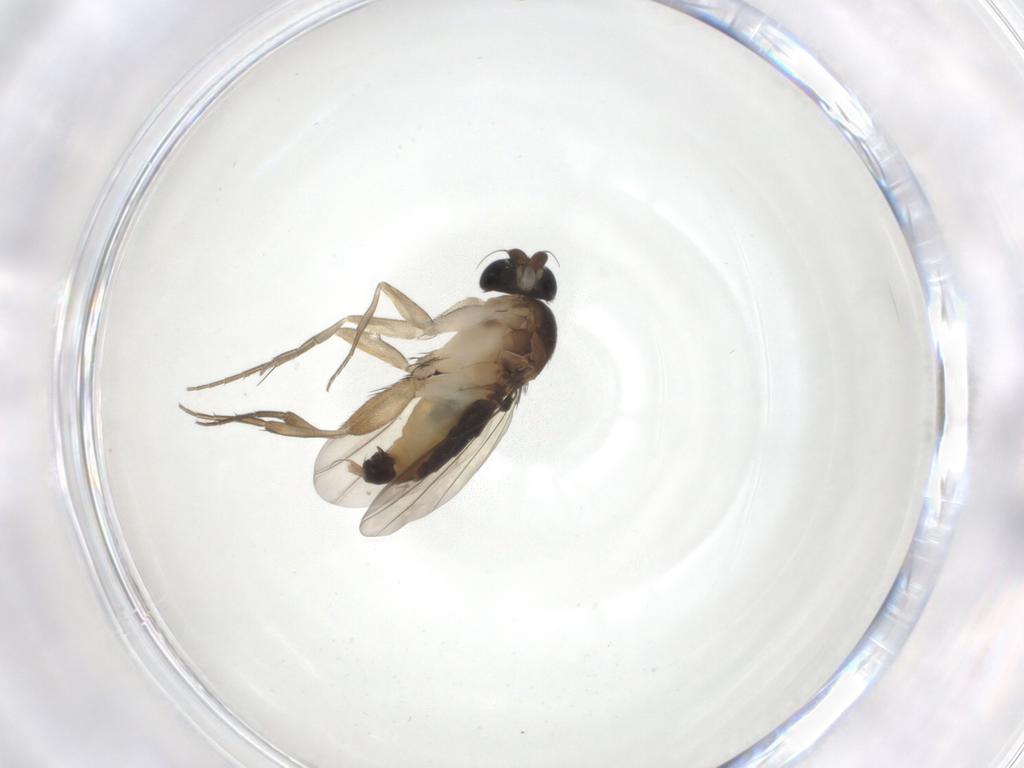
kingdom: Animalia
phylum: Arthropoda
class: Insecta
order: Diptera
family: Phoridae
